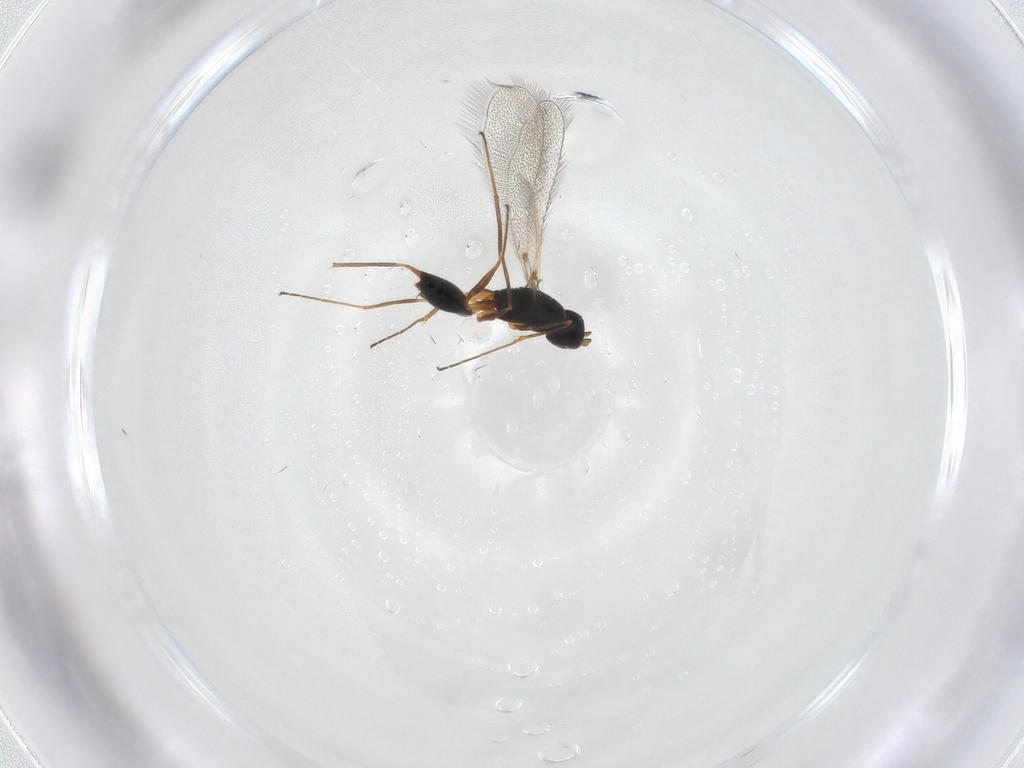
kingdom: Animalia
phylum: Arthropoda
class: Insecta
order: Hymenoptera
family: Mymaridae
